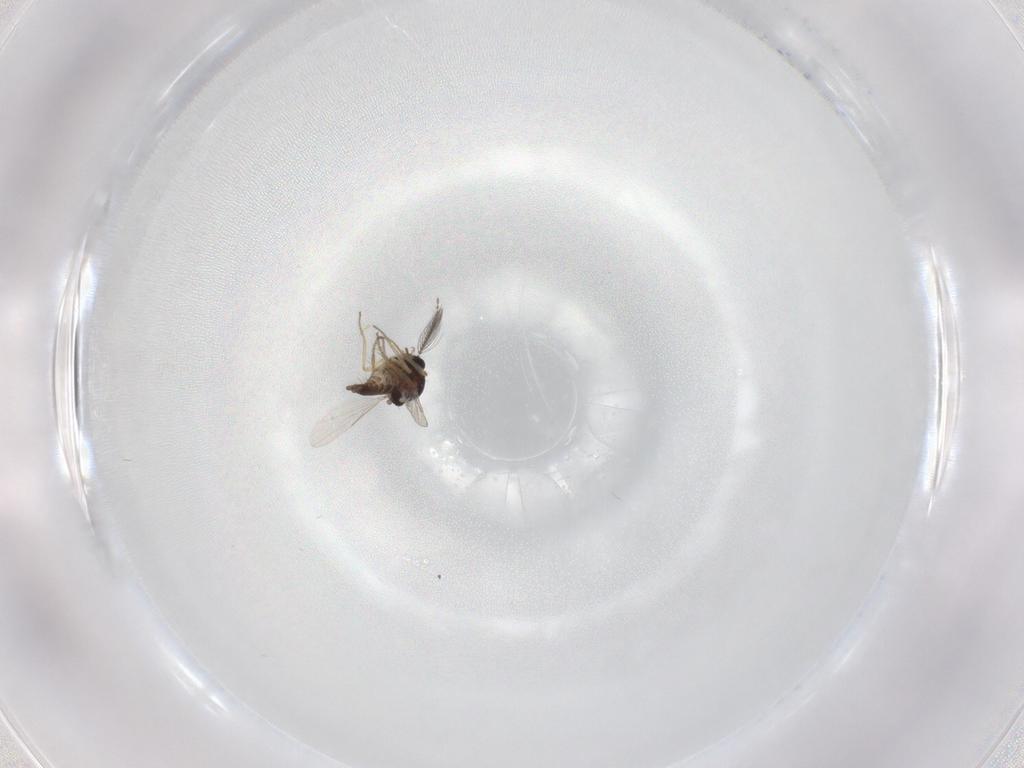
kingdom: Animalia
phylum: Arthropoda
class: Insecta
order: Diptera
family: Ceratopogonidae
